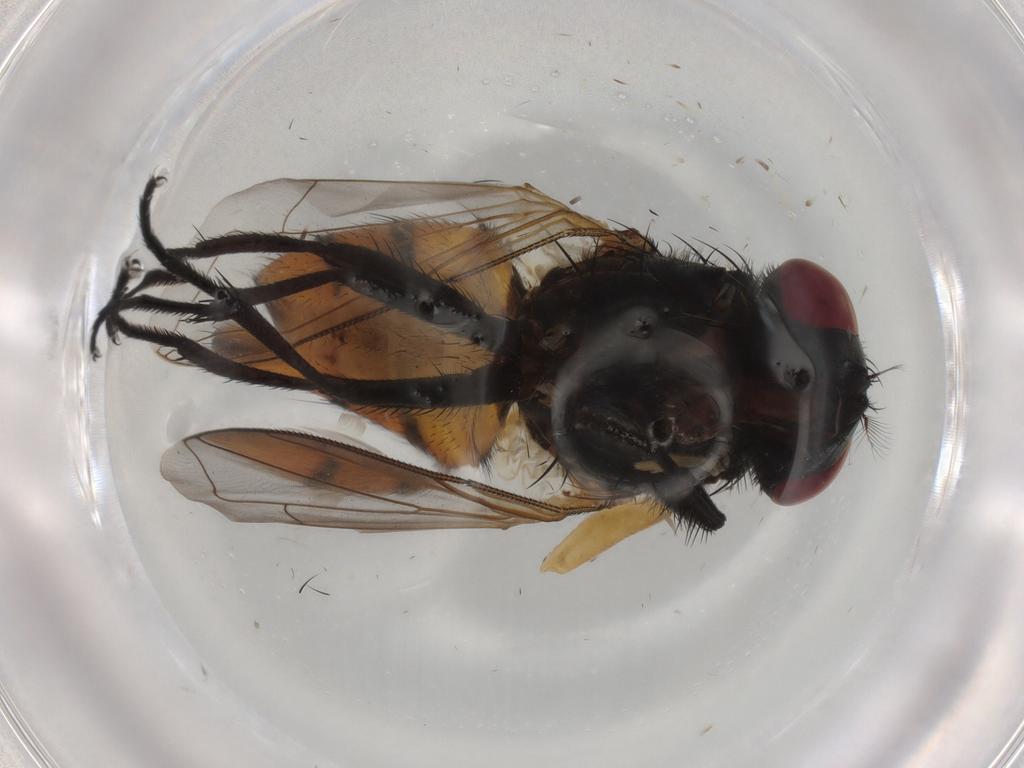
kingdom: Animalia
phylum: Arthropoda
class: Insecta
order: Diptera
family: Muscidae
